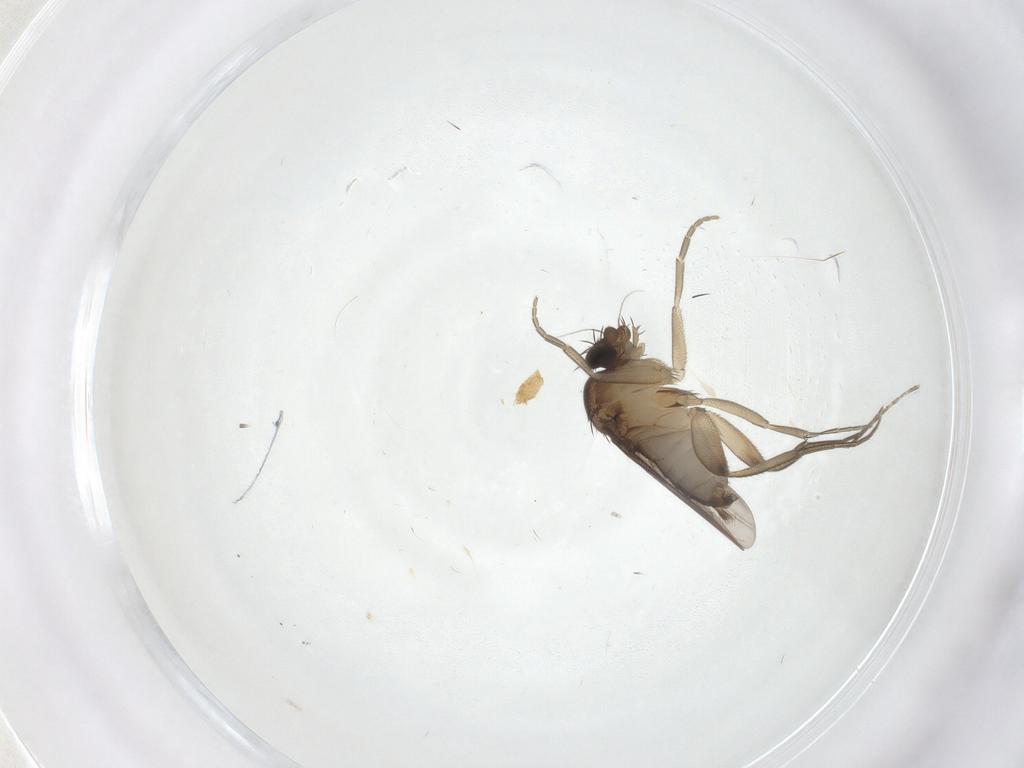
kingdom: Animalia
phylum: Arthropoda
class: Insecta
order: Diptera
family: Phoridae
